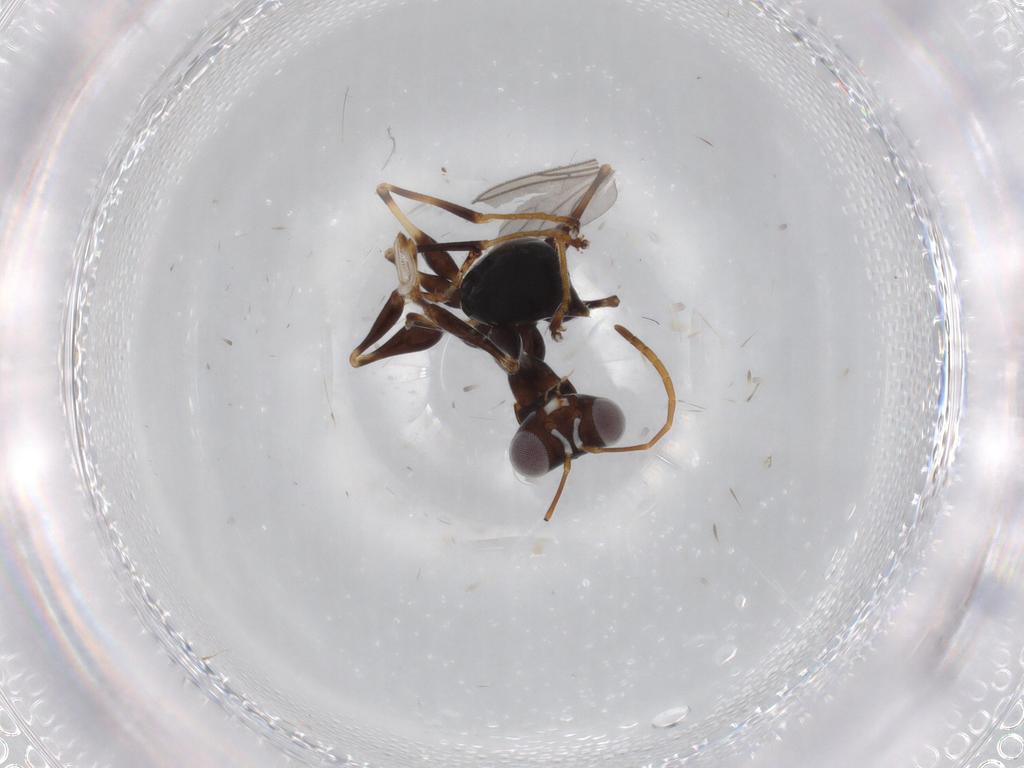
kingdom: Animalia
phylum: Arthropoda
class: Insecta
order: Hymenoptera
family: Dryinidae
